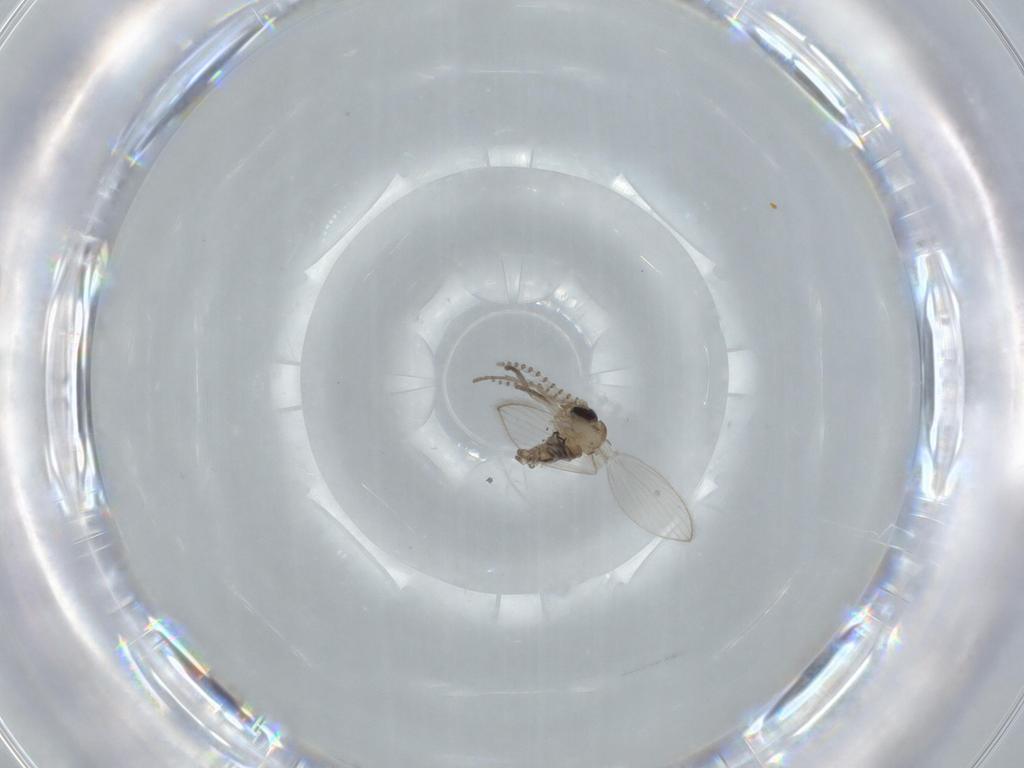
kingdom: Animalia
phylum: Arthropoda
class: Insecta
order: Diptera
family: Psychodidae
